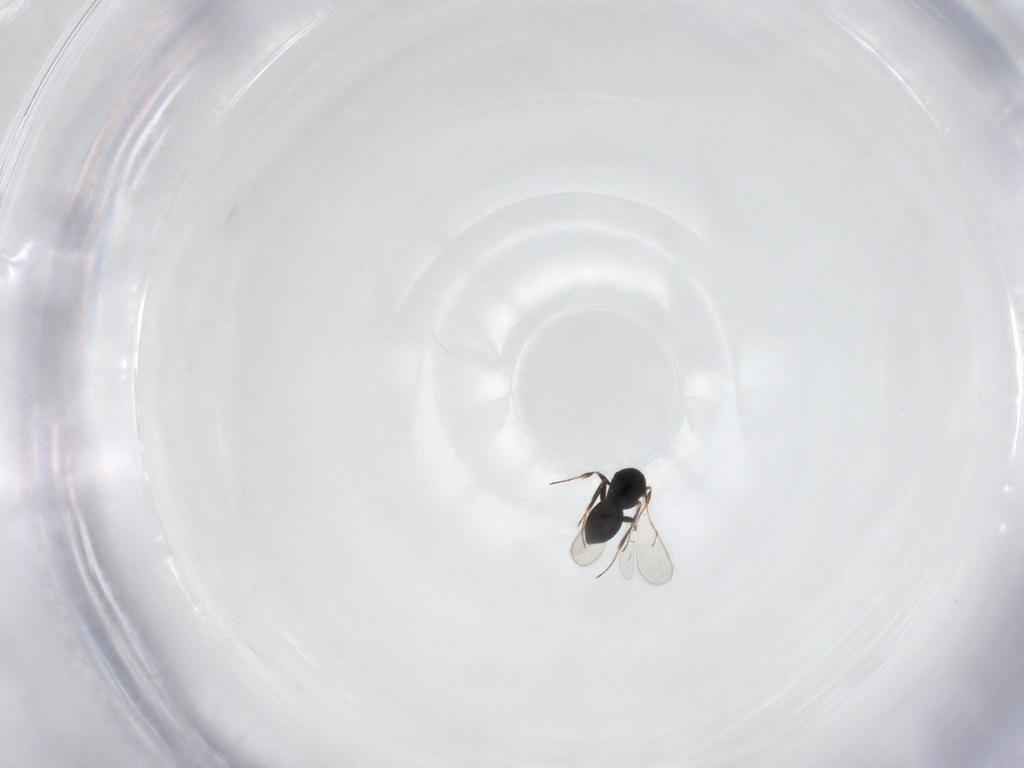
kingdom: Animalia
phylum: Arthropoda
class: Insecta
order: Hymenoptera
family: Scelionidae
